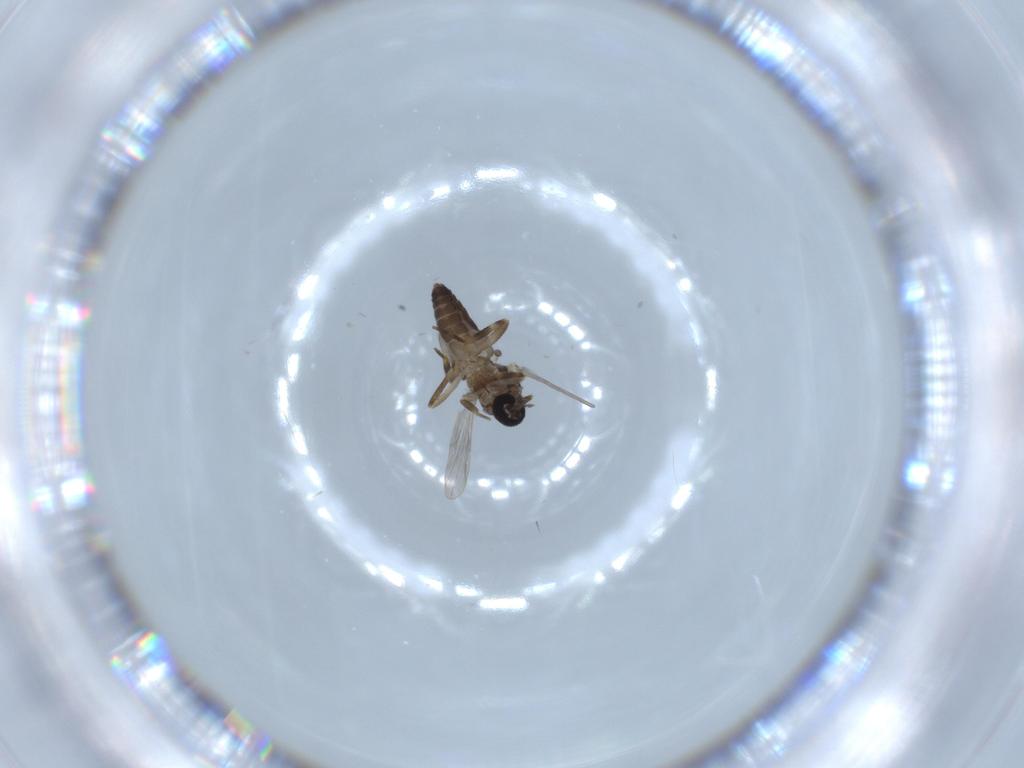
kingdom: Animalia
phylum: Arthropoda
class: Insecta
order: Diptera
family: Ceratopogonidae
